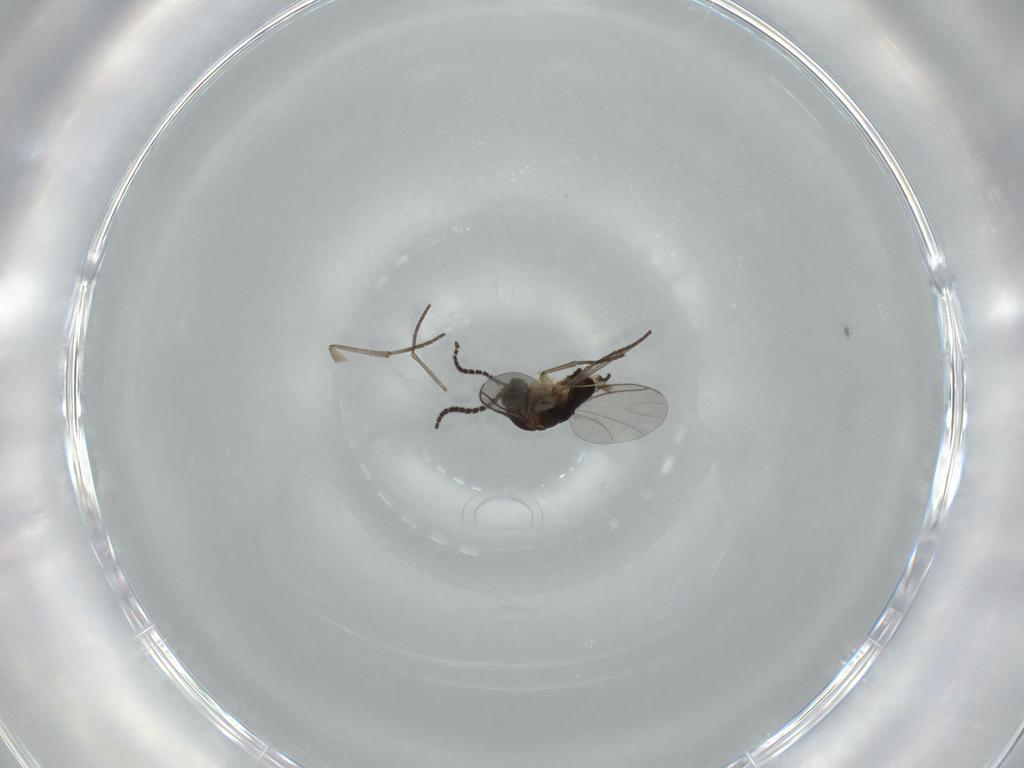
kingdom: Animalia
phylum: Arthropoda
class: Insecta
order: Diptera
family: Sciaridae
